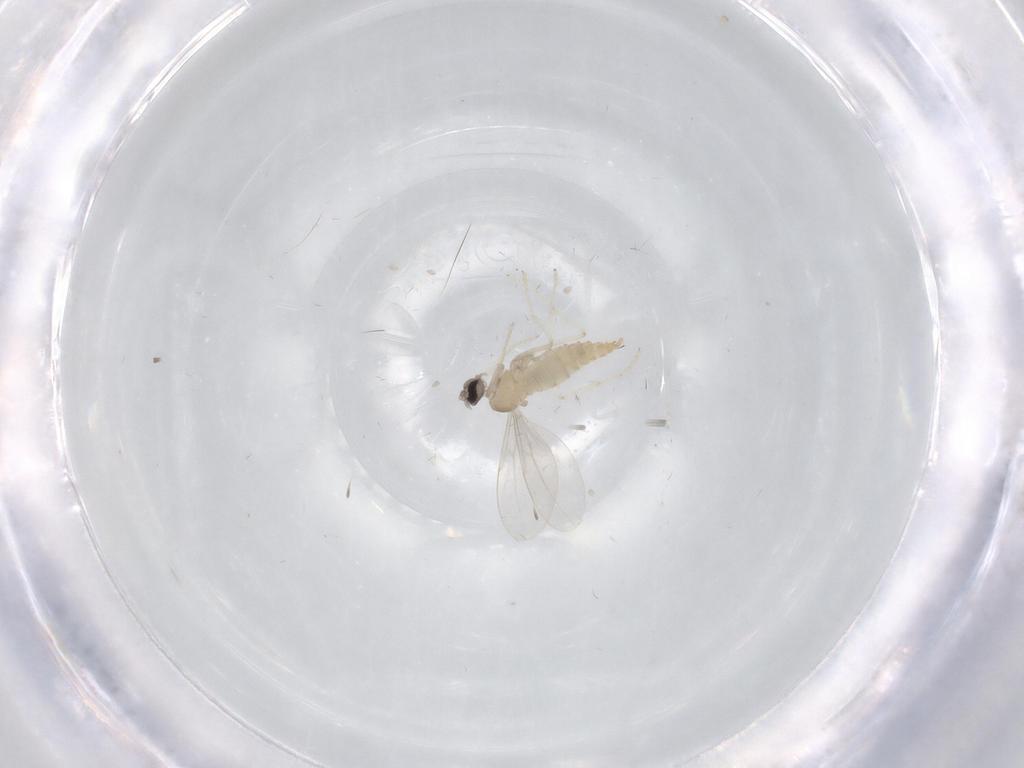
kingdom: Animalia
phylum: Arthropoda
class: Insecta
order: Diptera
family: Cecidomyiidae
